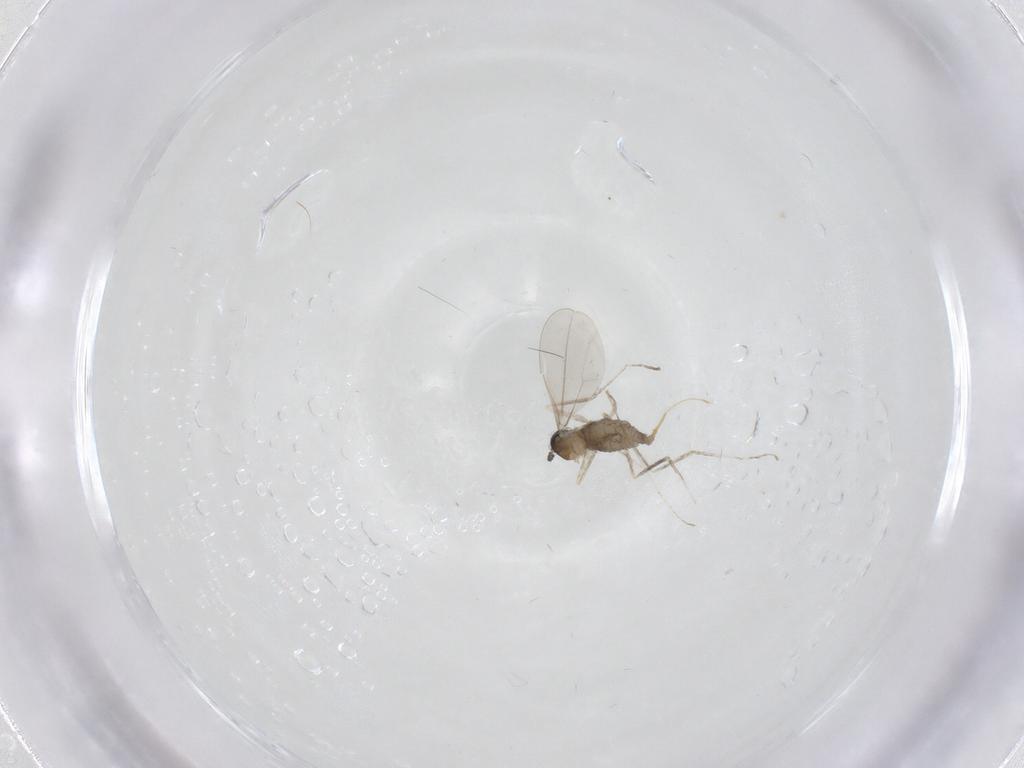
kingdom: Animalia
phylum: Arthropoda
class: Insecta
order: Diptera
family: Cecidomyiidae
